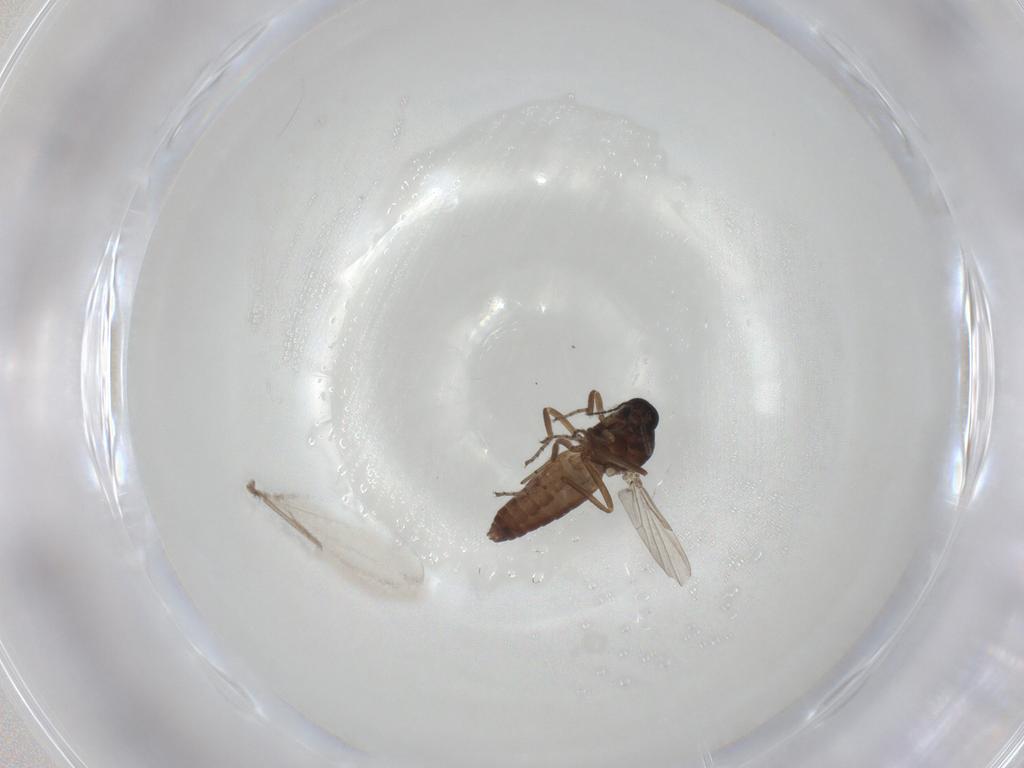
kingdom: Animalia
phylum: Arthropoda
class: Insecta
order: Diptera
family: Ceratopogonidae
